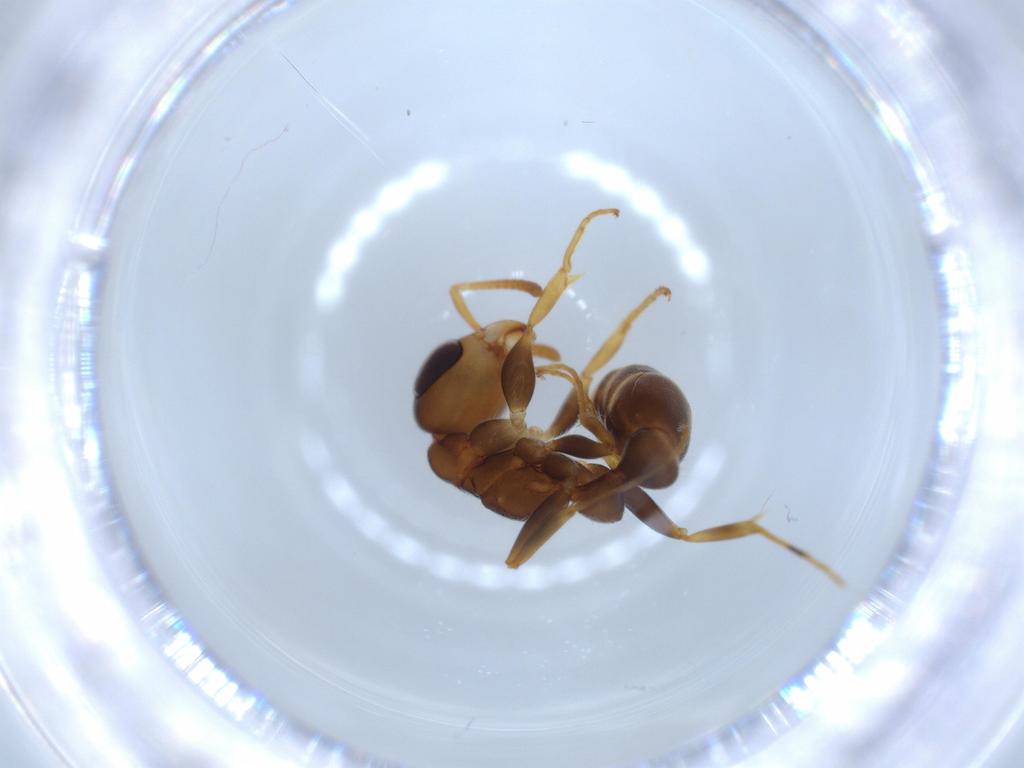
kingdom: Animalia
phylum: Arthropoda
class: Insecta
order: Hymenoptera
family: Formicidae
